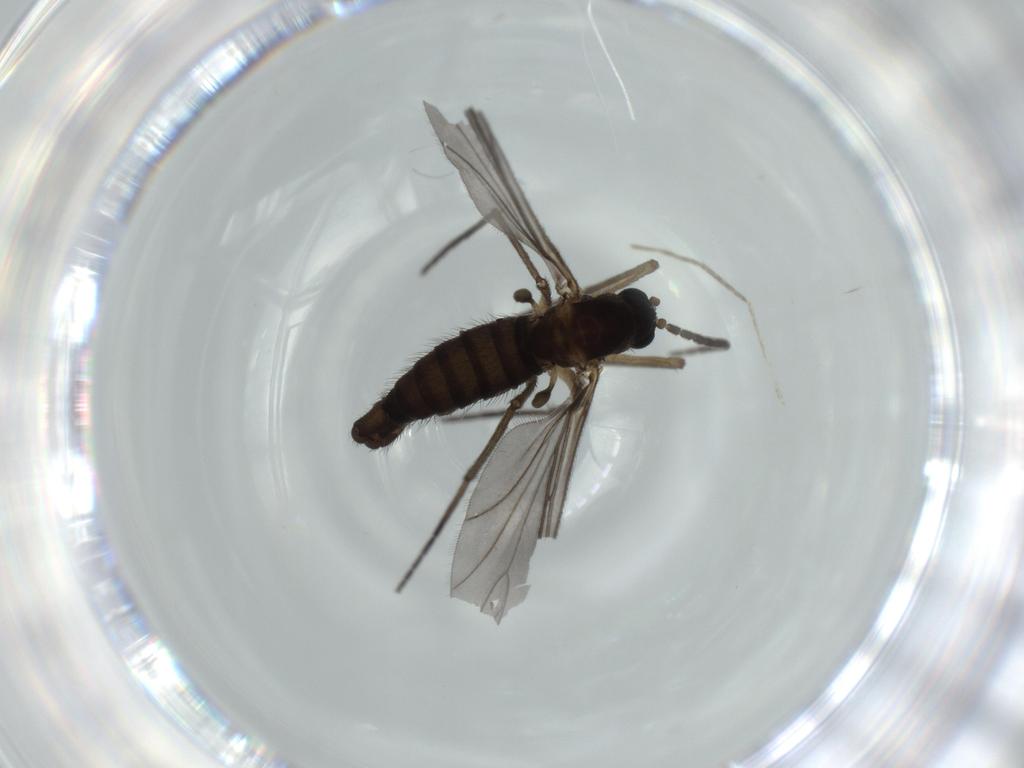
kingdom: Animalia
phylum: Arthropoda
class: Insecta
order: Diptera
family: Sciaridae
